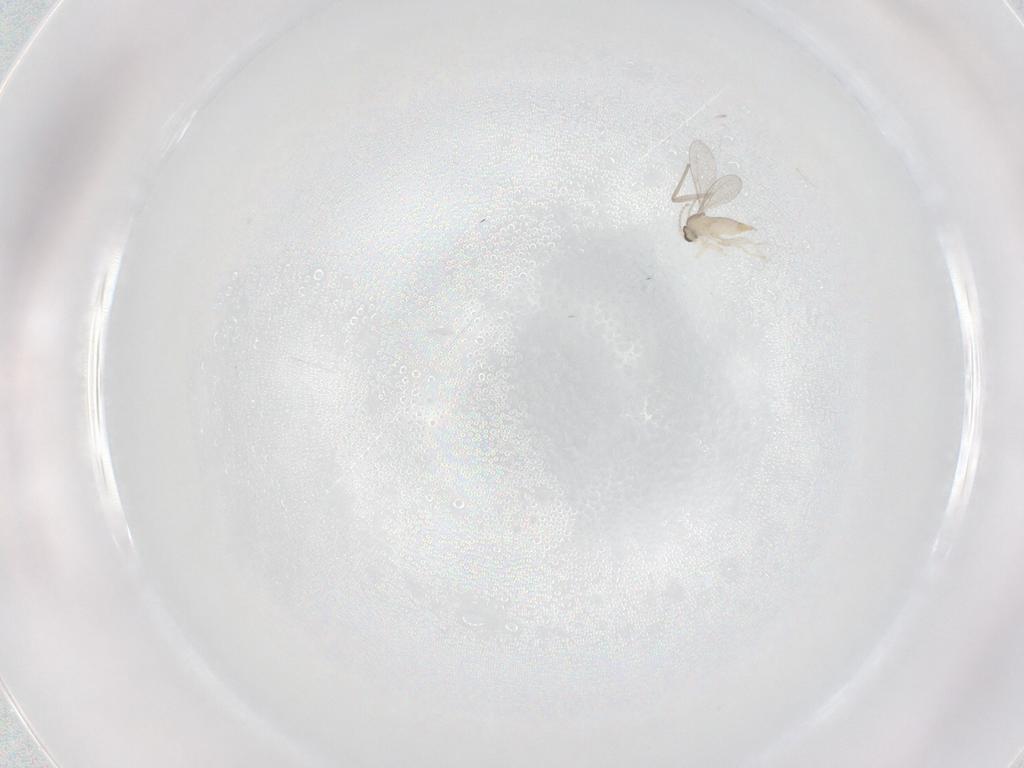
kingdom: Animalia
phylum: Arthropoda
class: Insecta
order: Diptera
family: Cecidomyiidae
